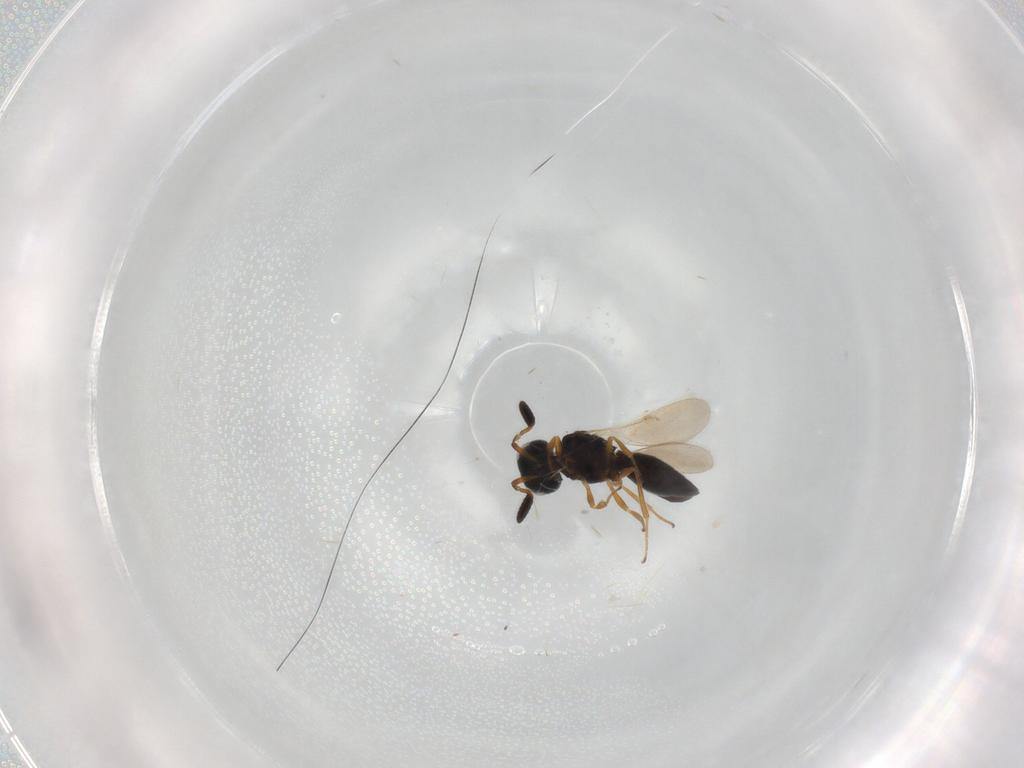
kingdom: Animalia
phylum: Arthropoda
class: Insecta
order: Hymenoptera
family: Scelionidae
